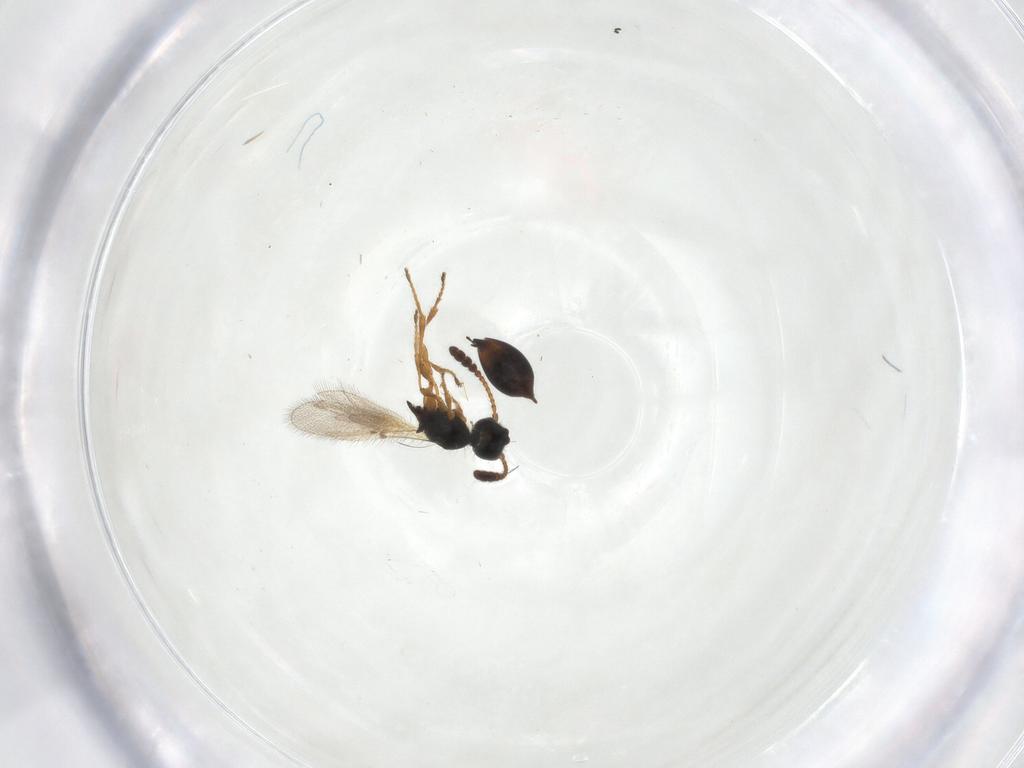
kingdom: Animalia
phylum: Arthropoda
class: Insecta
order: Hymenoptera
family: Diapriidae
